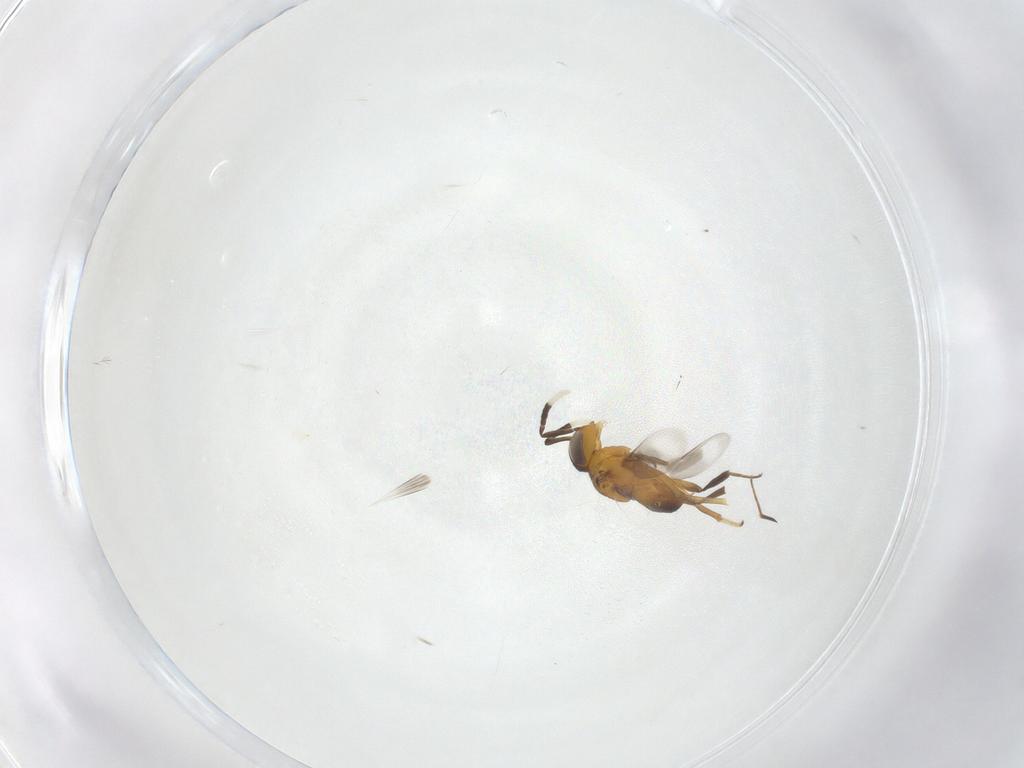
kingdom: Animalia
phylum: Arthropoda
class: Insecta
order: Hymenoptera
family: Encyrtidae
